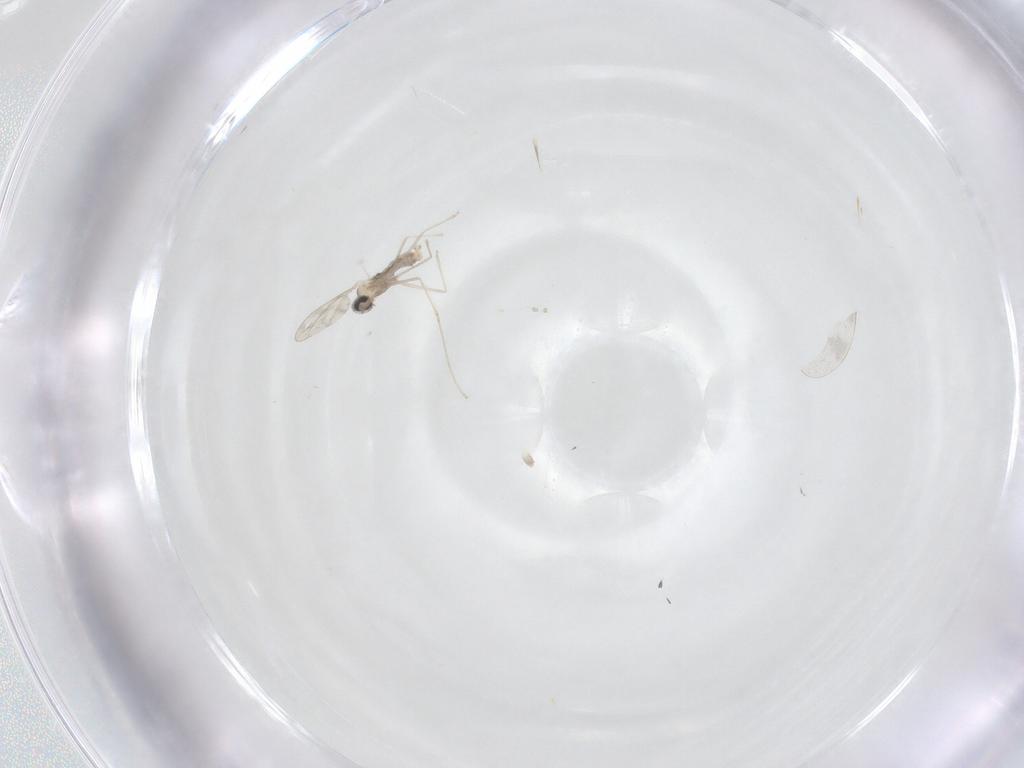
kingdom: Animalia
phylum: Arthropoda
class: Insecta
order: Diptera
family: Cecidomyiidae
